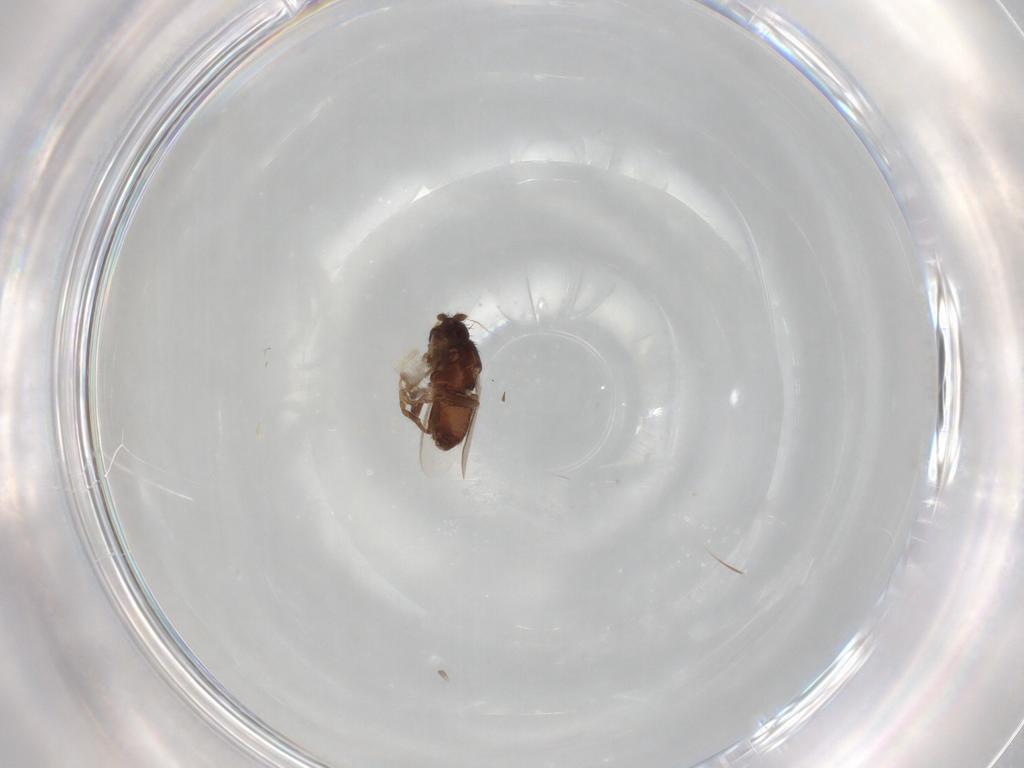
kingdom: Animalia
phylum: Arthropoda
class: Insecta
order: Diptera
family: Sphaeroceridae
